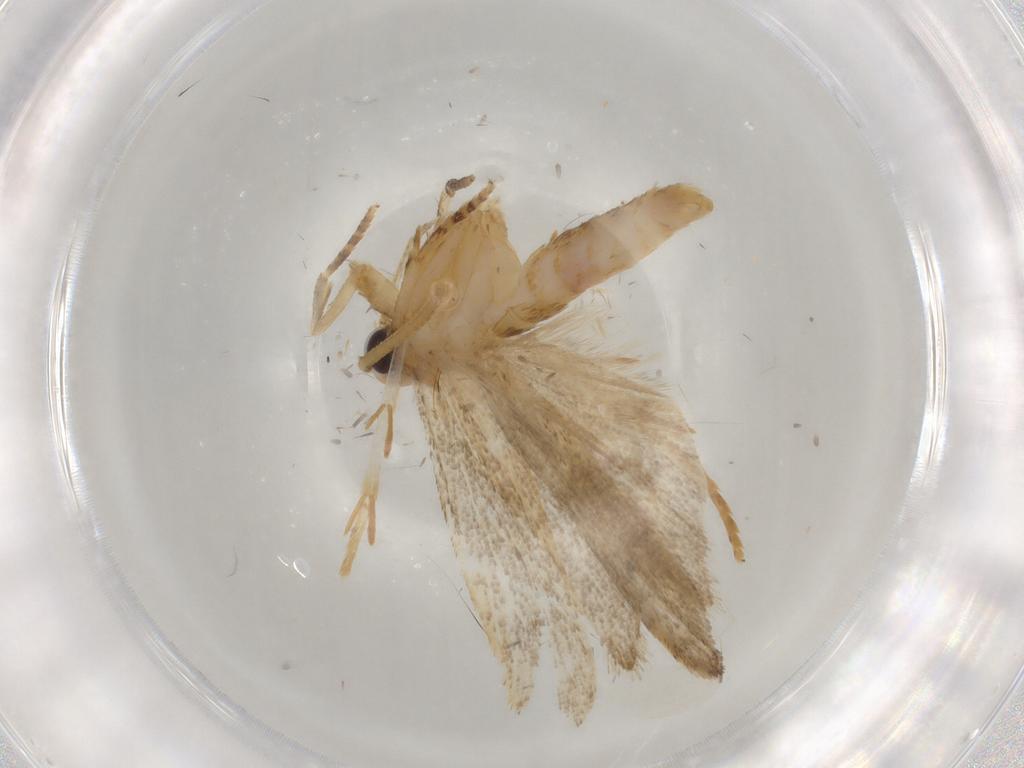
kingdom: Animalia
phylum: Arthropoda
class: Insecta
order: Lepidoptera
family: Autostichidae
